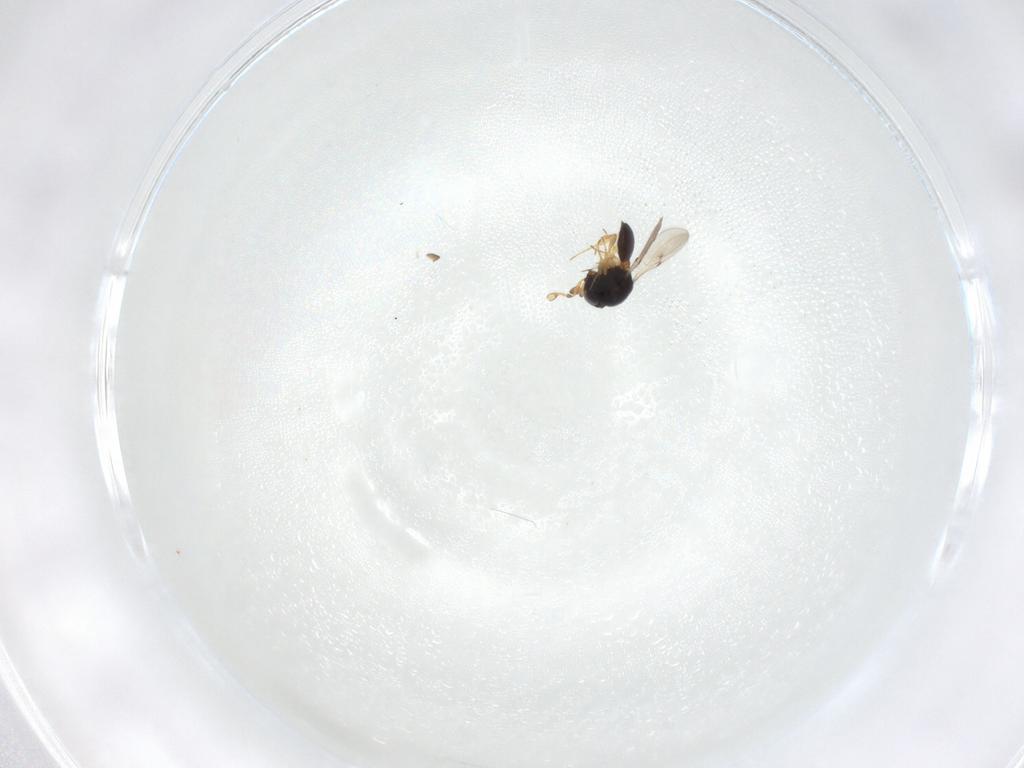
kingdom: Animalia
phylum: Arthropoda
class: Insecta
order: Hymenoptera
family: Scelionidae
